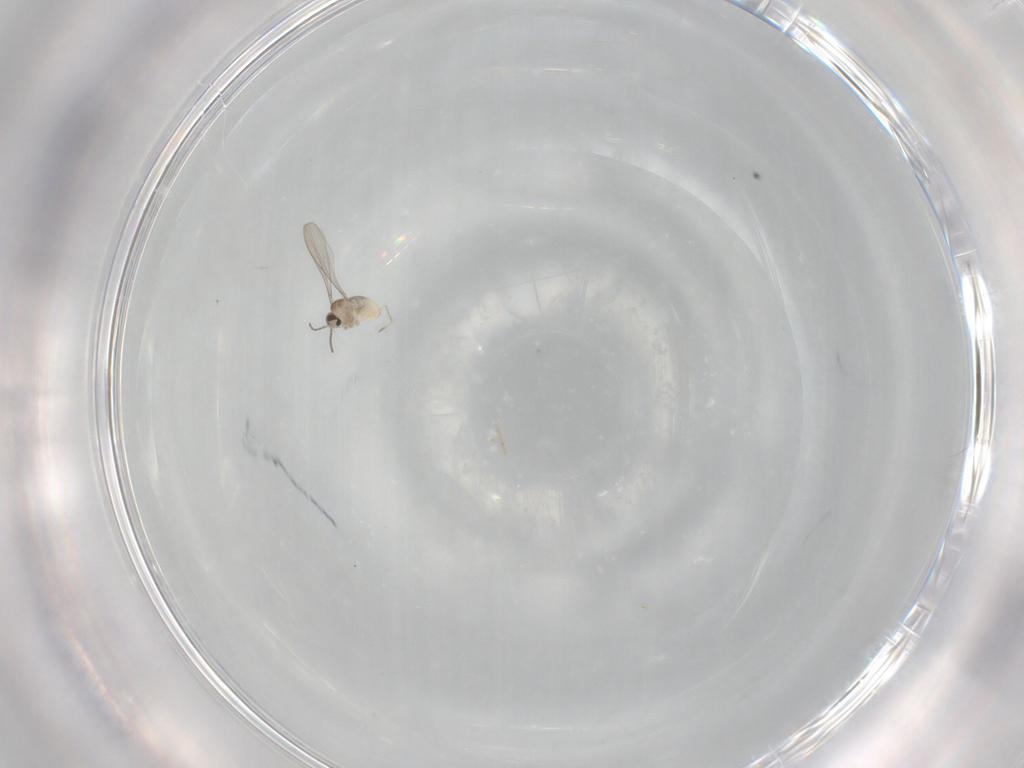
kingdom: Animalia
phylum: Arthropoda
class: Insecta
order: Diptera
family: Cecidomyiidae
